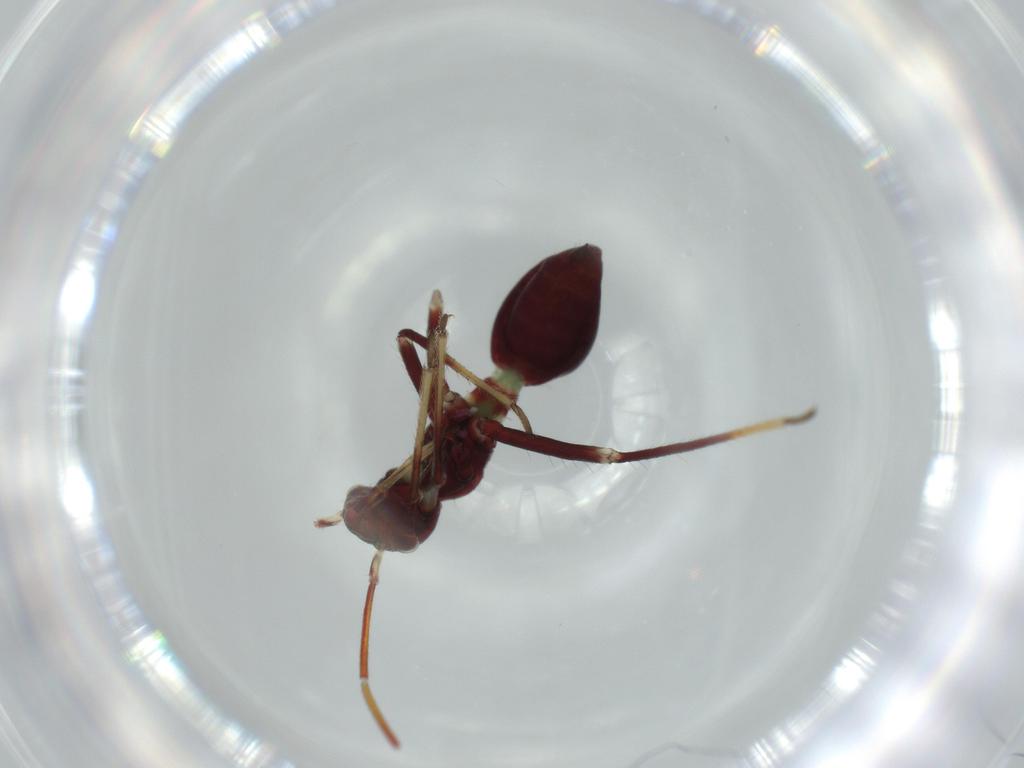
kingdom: Animalia
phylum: Arthropoda
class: Insecta
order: Hemiptera
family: Miridae
